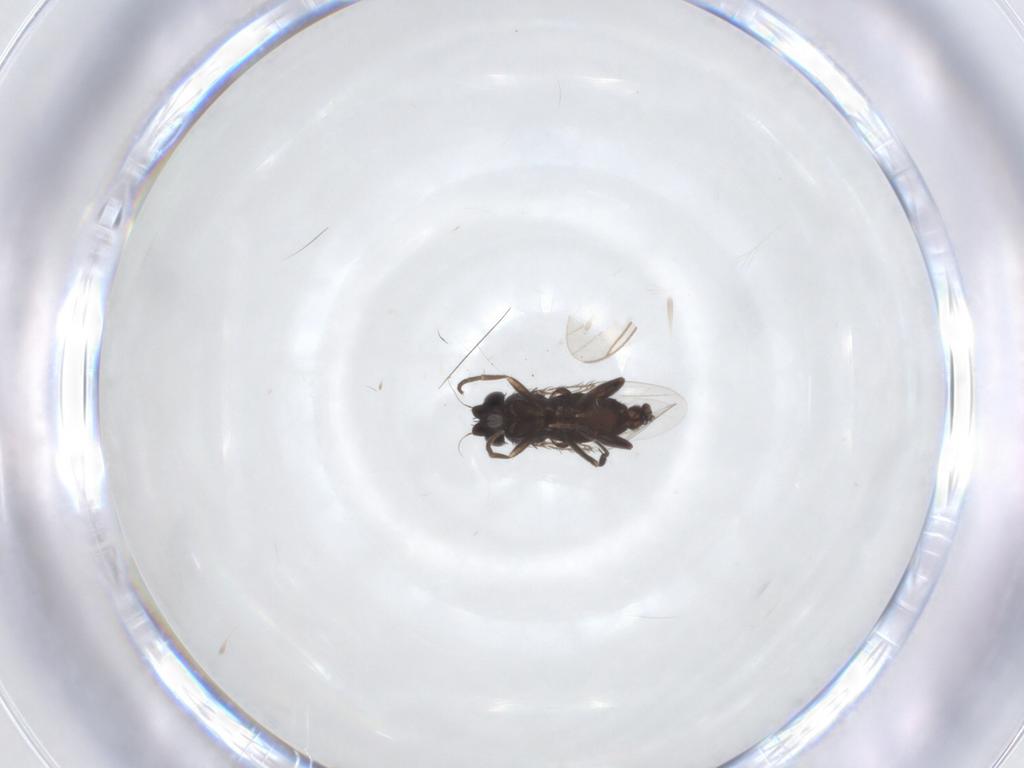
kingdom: Animalia
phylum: Arthropoda
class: Insecta
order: Diptera
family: Phoridae
